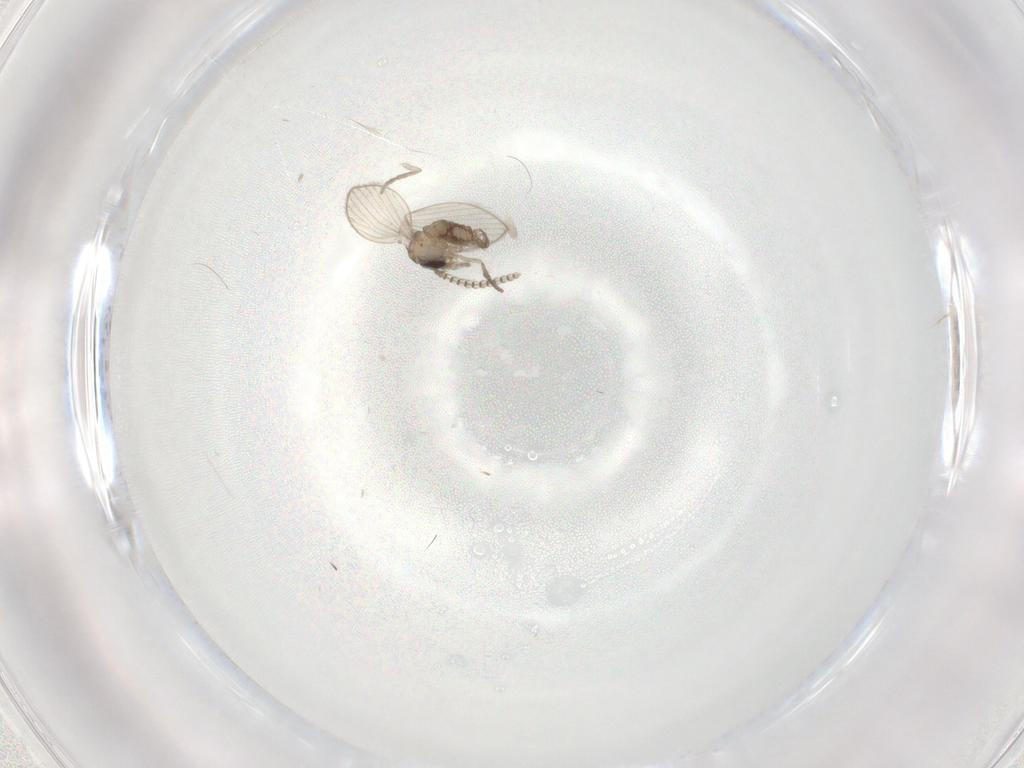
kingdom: Animalia
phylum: Arthropoda
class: Insecta
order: Diptera
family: Psychodidae
